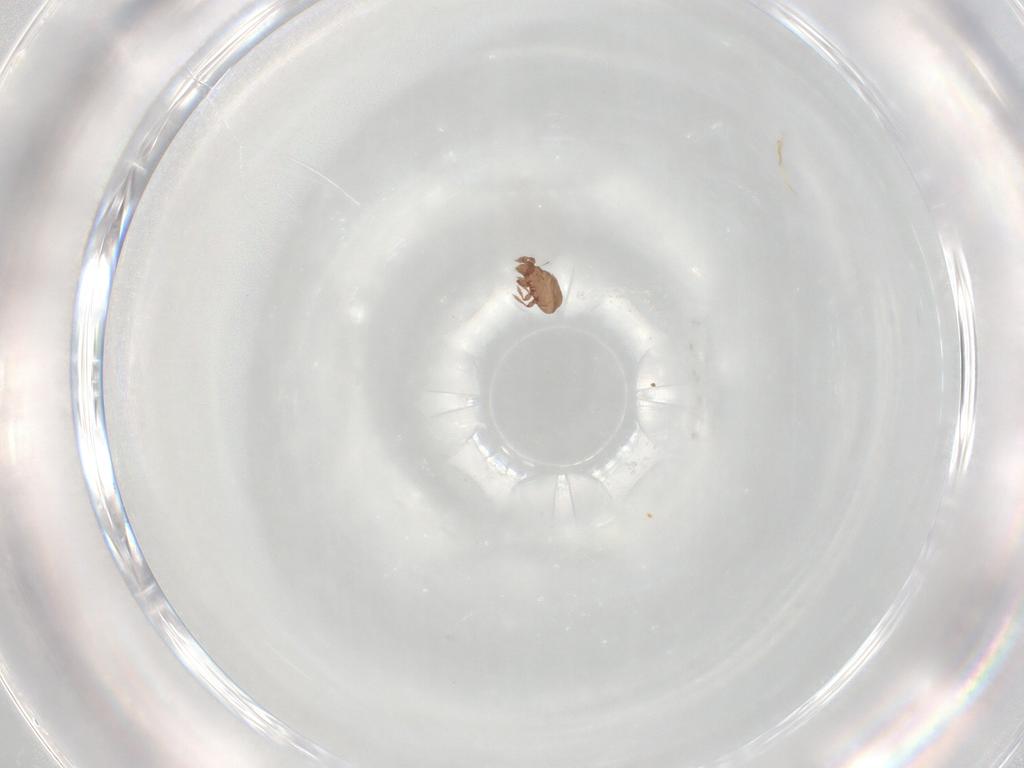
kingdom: Animalia
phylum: Arthropoda
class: Arachnida
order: Sarcoptiformes
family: Eremaeidae
